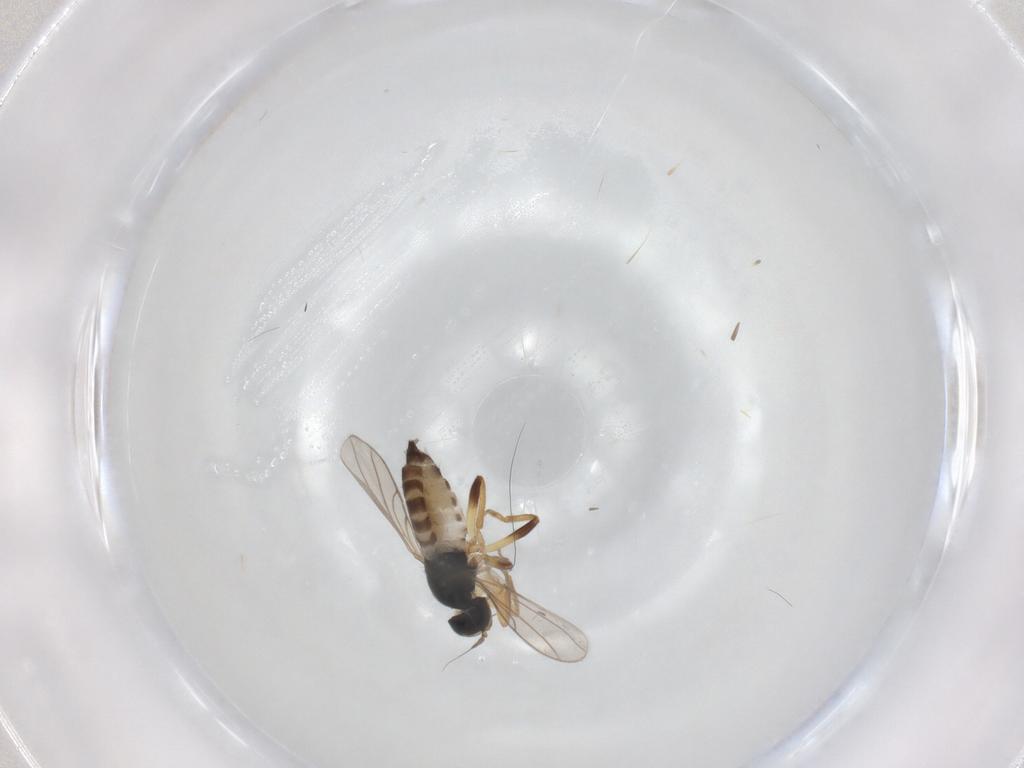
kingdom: Animalia
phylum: Arthropoda
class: Insecta
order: Diptera
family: Hybotidae
